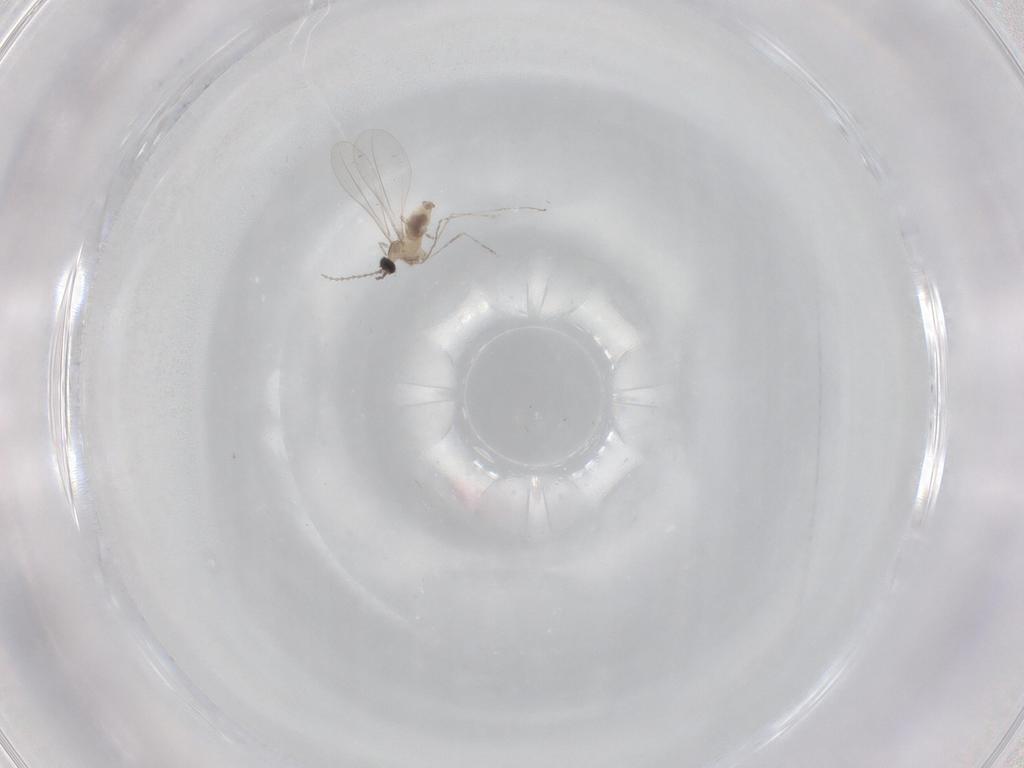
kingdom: Animalia
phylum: Arthropoda
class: Insecta
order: Diptera
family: Cecidomyiidae
